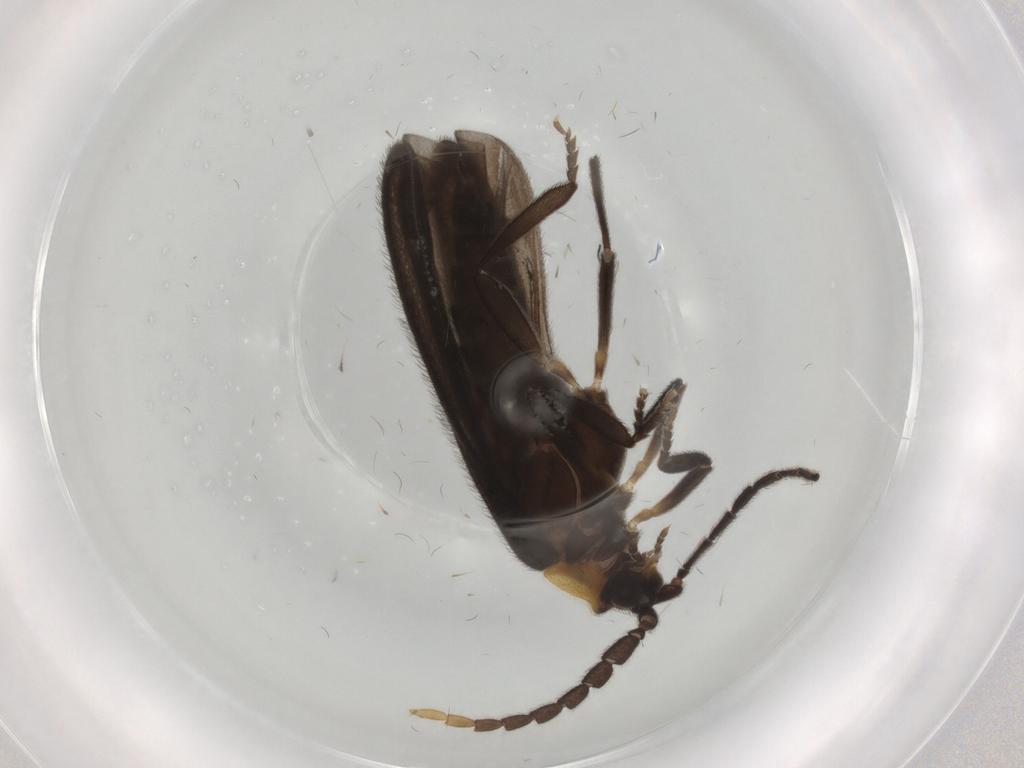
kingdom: Animalia
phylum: Arthropoda
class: Insecta
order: Coleoptera
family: Lycidae
